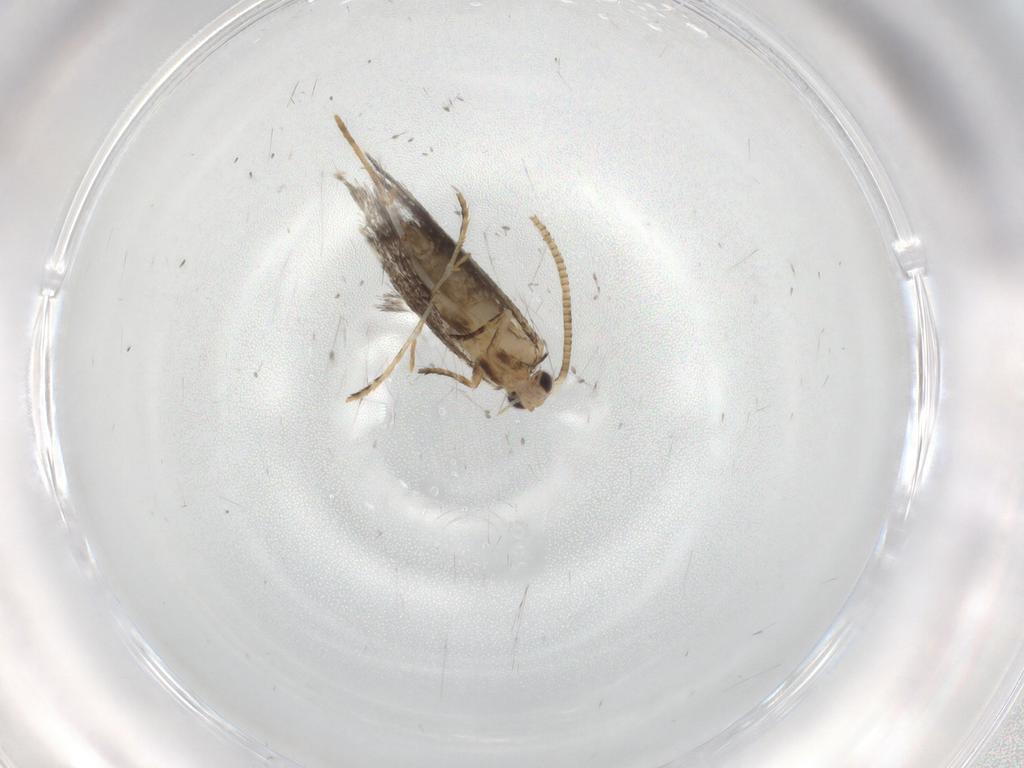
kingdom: Animalia
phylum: Arthropoda
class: Insecta
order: Lepidoptera
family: Tineidae
